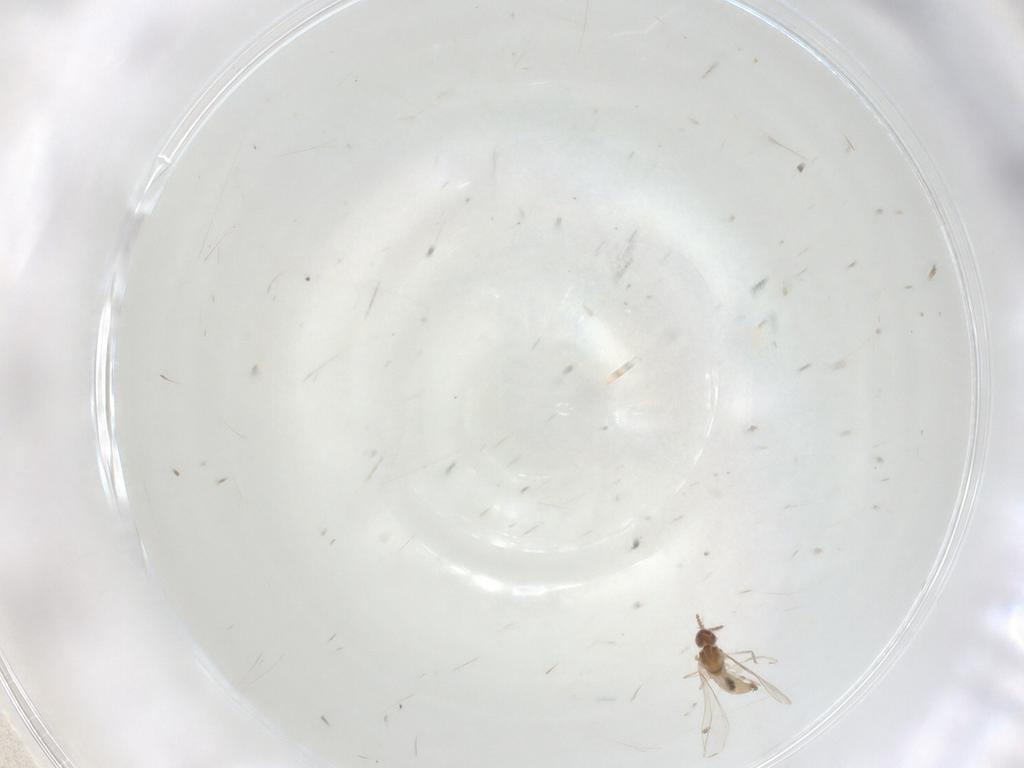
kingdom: Animalia
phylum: Arthropoda
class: Insecta
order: Diptera
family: Cecidomyiidae
